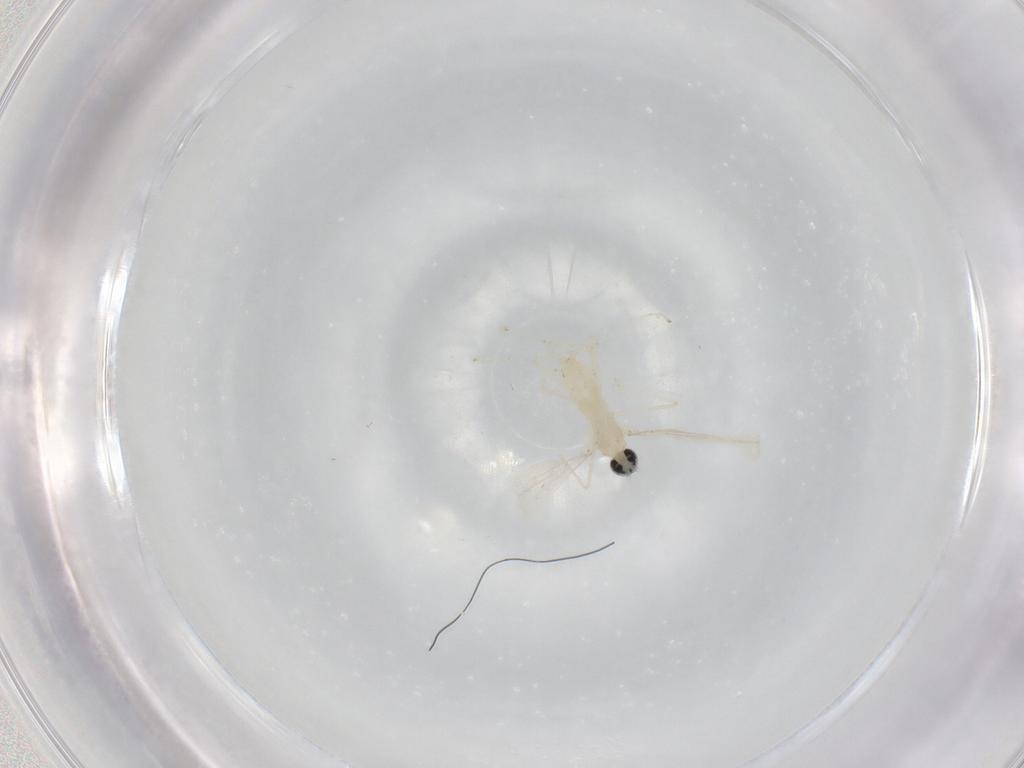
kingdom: Animalia
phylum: Arthropoda
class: Insecta
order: Diptera
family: Cecidomyiidae
